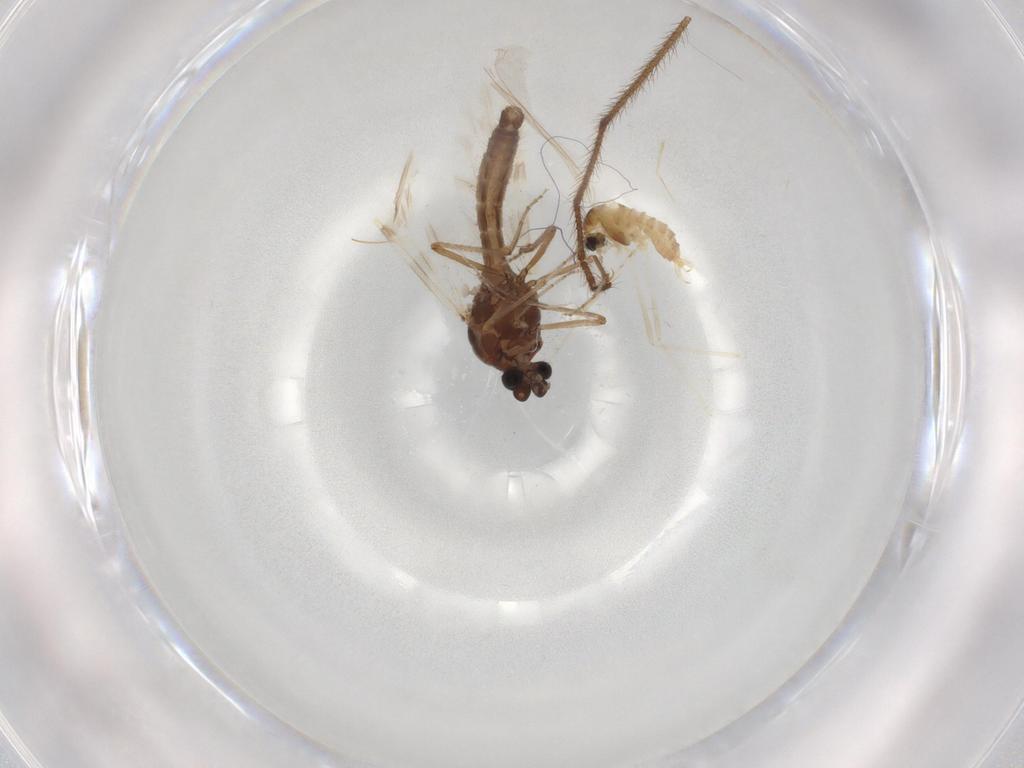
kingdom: Animalia
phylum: Arthropoda
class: Insecta
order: Diptera
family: Cecidomyiidae
